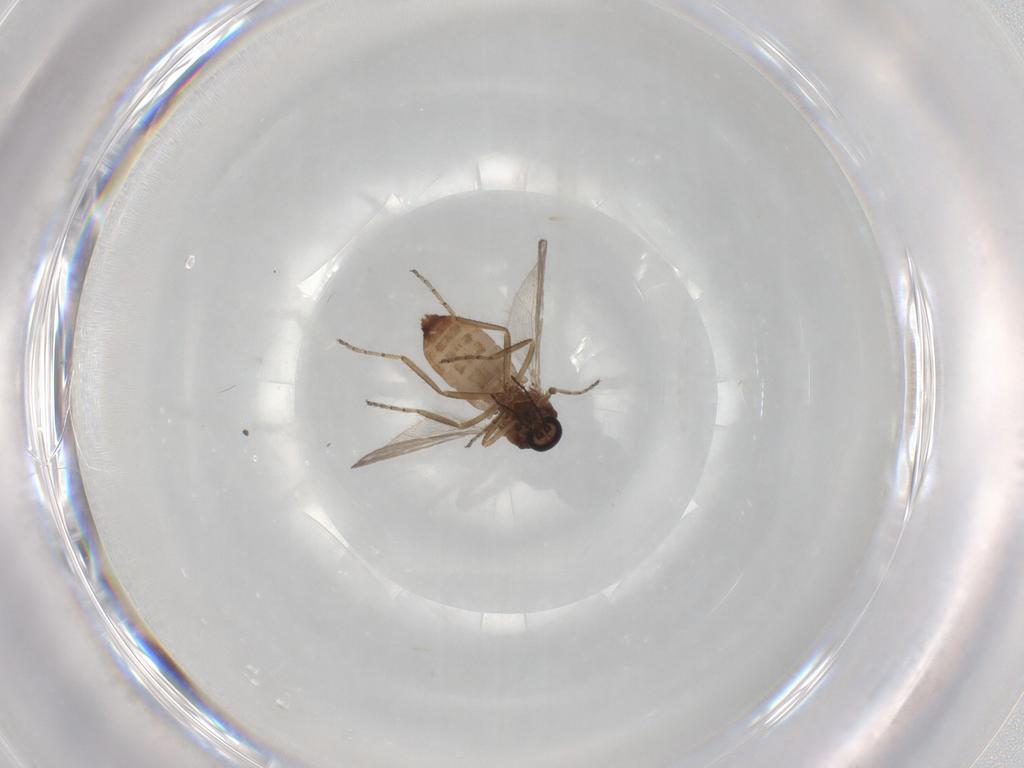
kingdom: Animalia
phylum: Arthropoda
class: Insecta
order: Diptera
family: Ceratopogonidae
